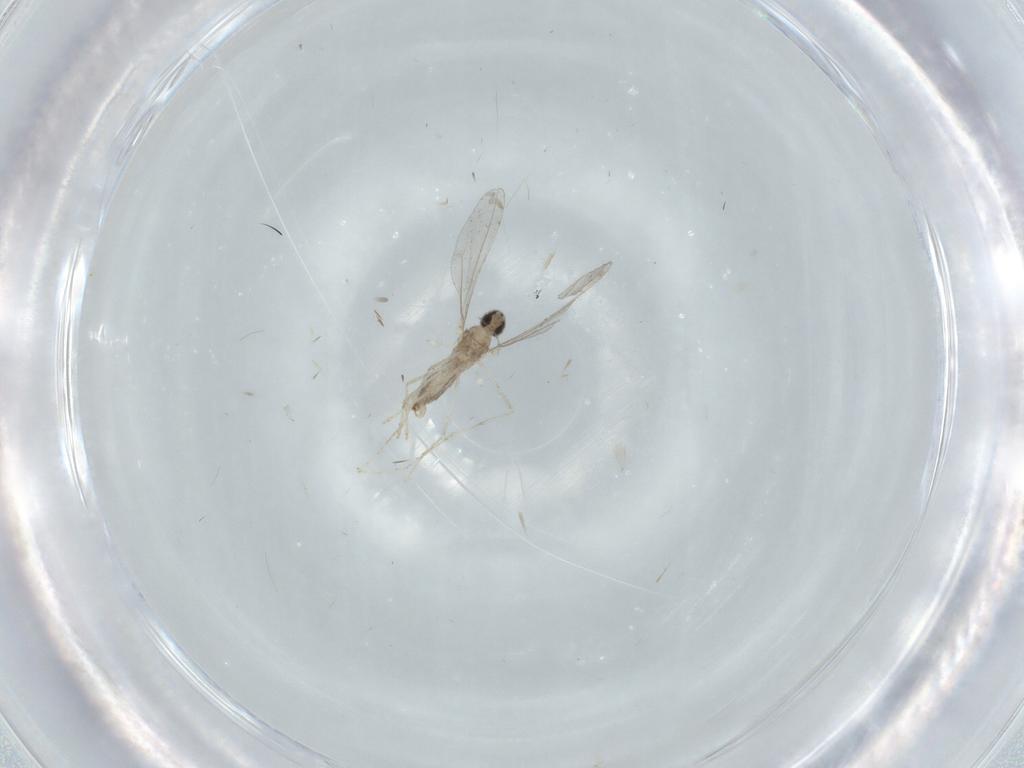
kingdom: Animalia
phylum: Arthropoda
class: Insecta
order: Diptera
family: Cecidomyiidae
